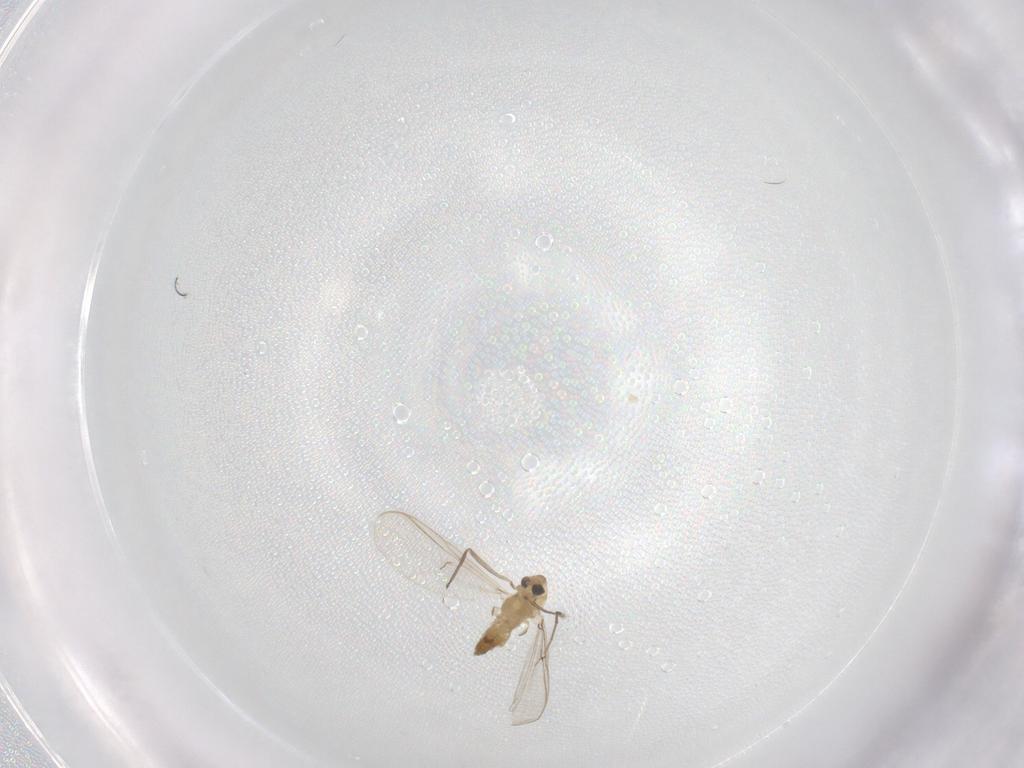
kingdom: Animalia
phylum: Arthropoda
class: Insecta
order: Diptera
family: Chironomidae
